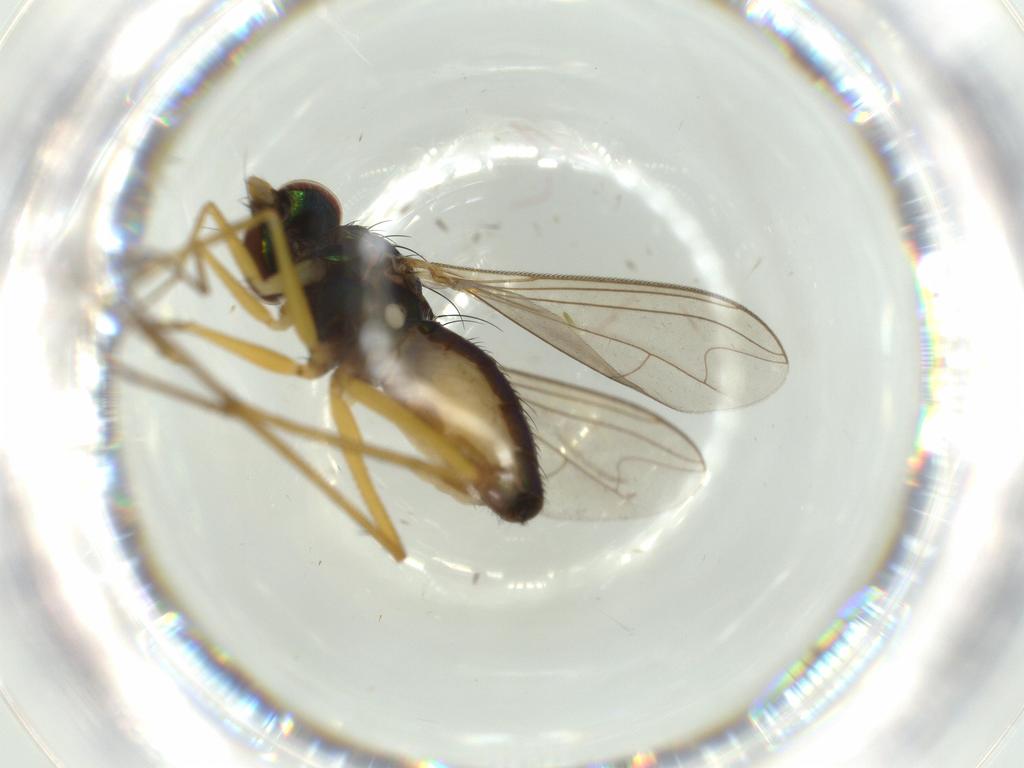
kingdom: Animalia
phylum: Arthropoda
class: Insecta
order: Diptera
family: Dolichopodidae
